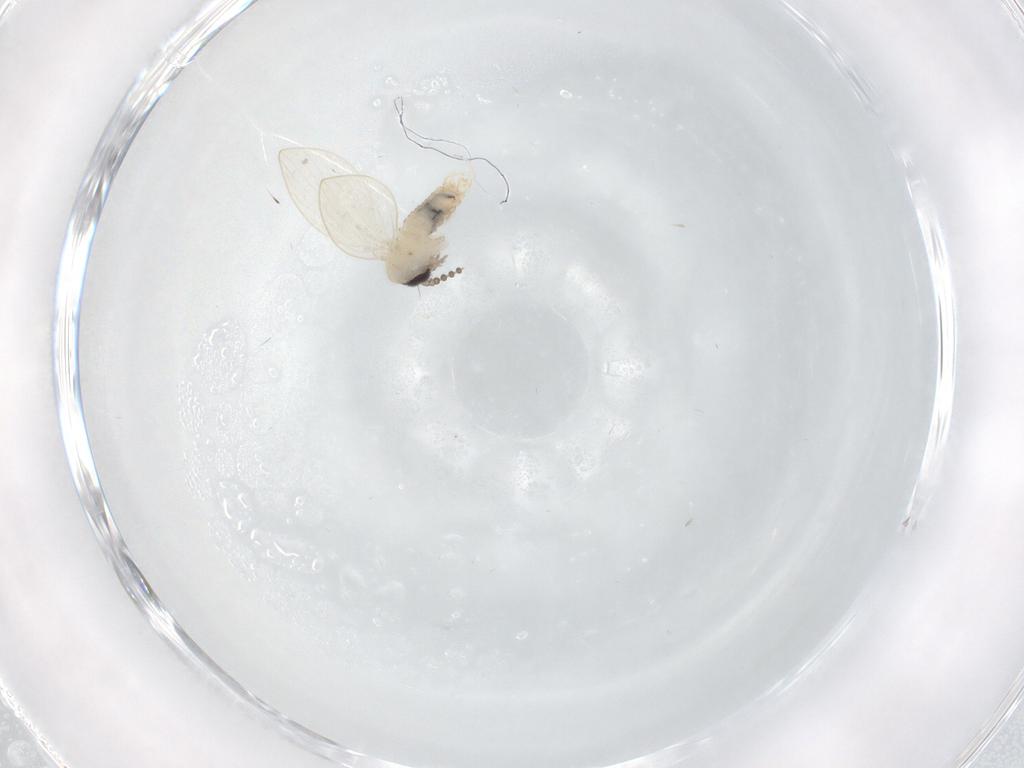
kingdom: Animalia
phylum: Arthropoda
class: Insecta
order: Diptera
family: Psychodidae
